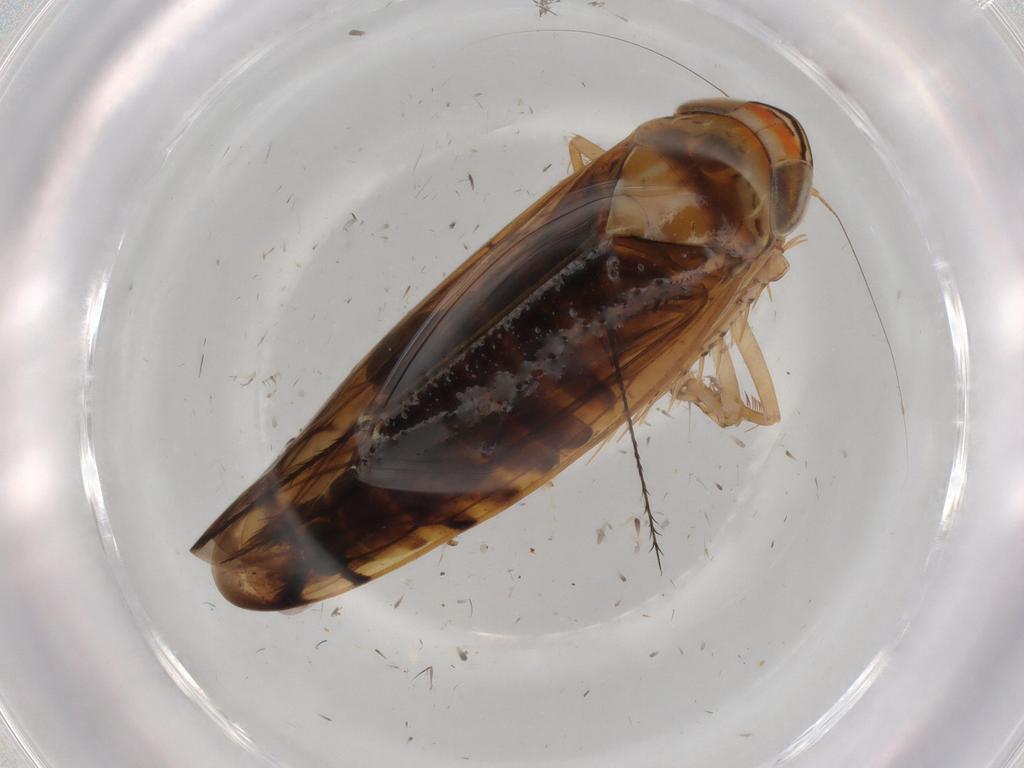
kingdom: Animalia
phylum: Arthropoda
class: Insecta
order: Hemiptera
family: Cicadellidae
